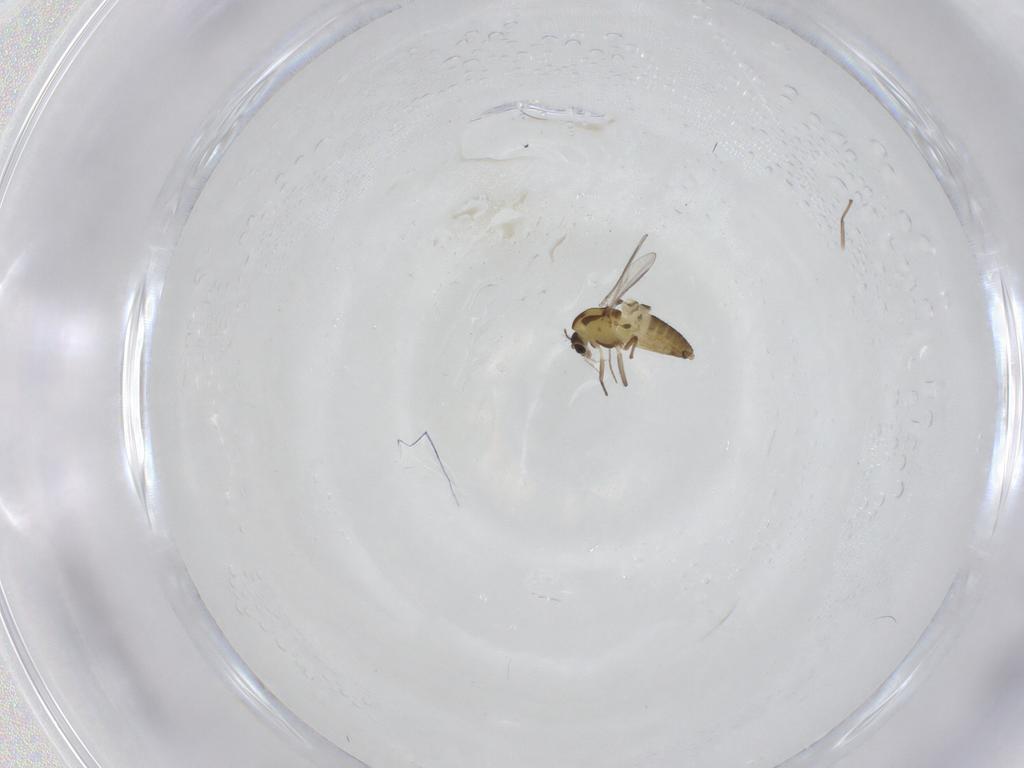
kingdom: Animalia
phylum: Arthropoda
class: Insecta
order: Diptera
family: Chironomidae
